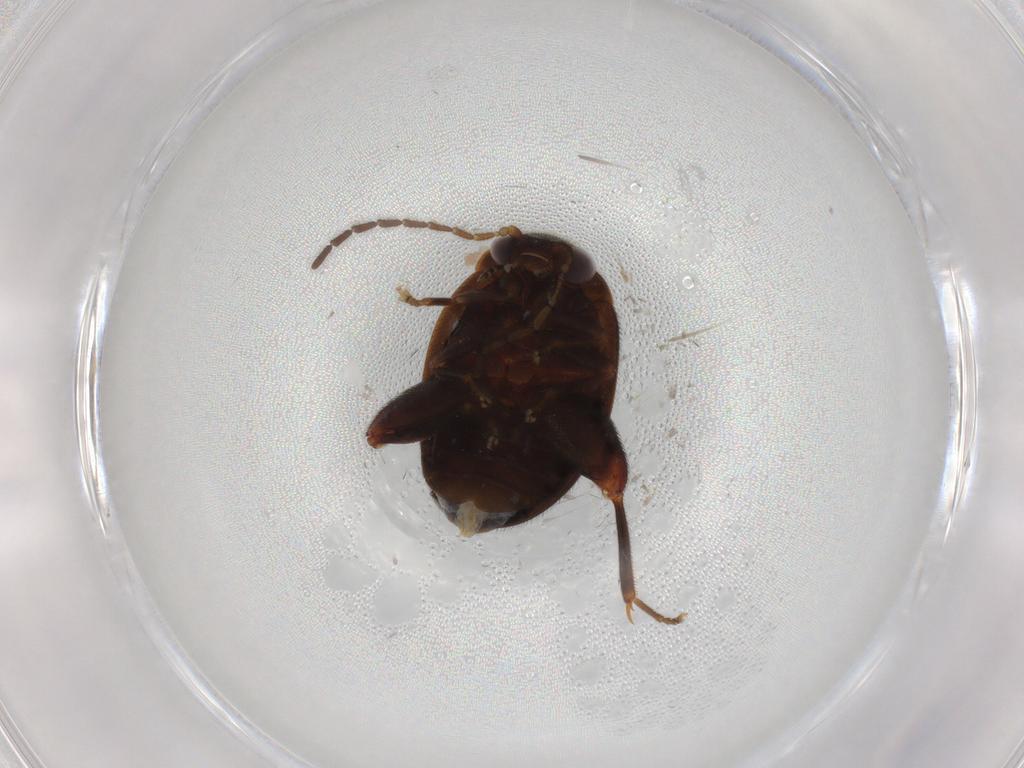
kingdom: Animalia
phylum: Arthropoda
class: Insecta
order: Coleoptera
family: Scirtidae
